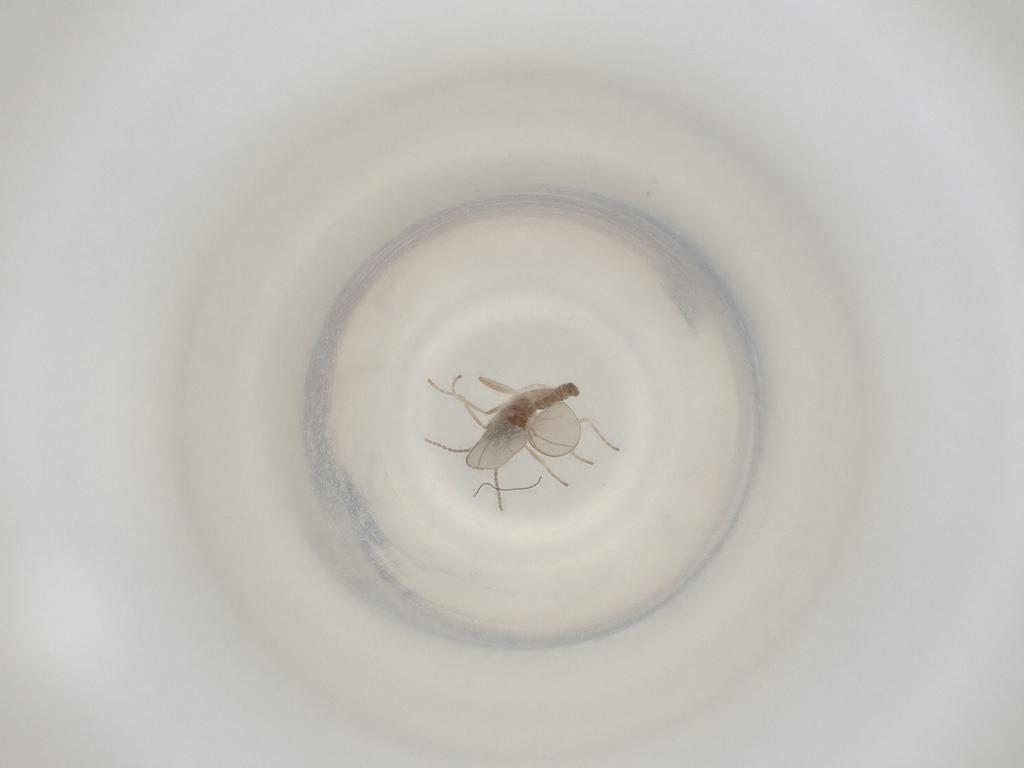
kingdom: Animalia
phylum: Arthropoda
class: Insecta
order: Diptera
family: Cecidomyiidae
